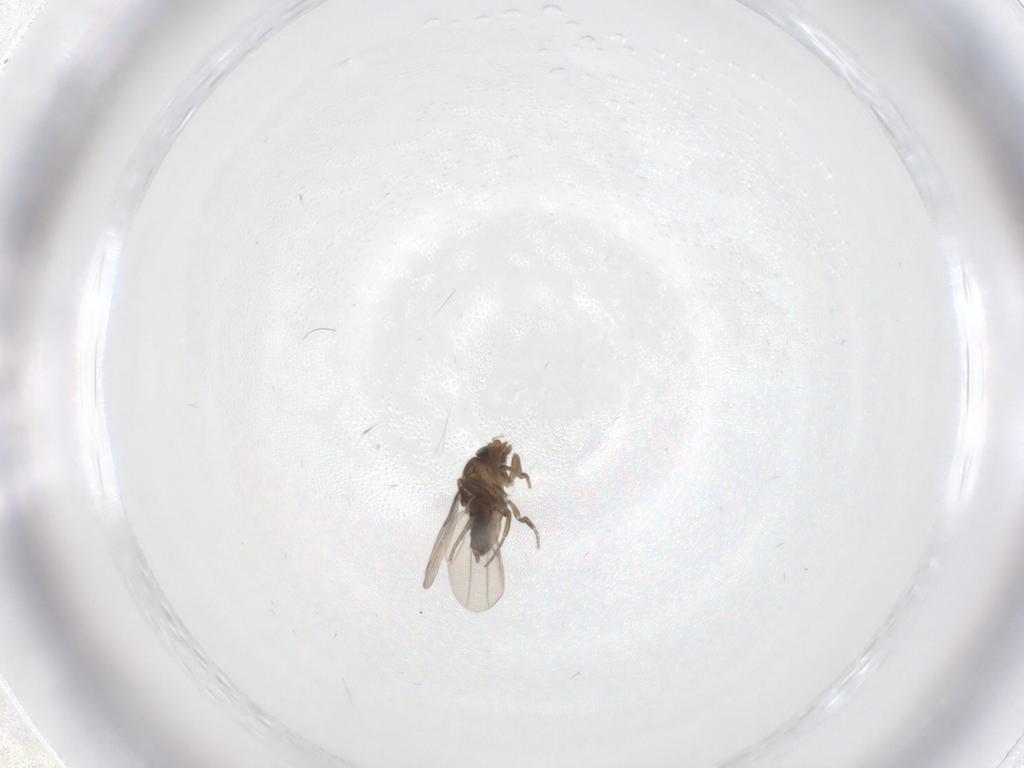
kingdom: Animalia
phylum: Arthropoda
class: Insecta
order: Diptera
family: Phoridae
